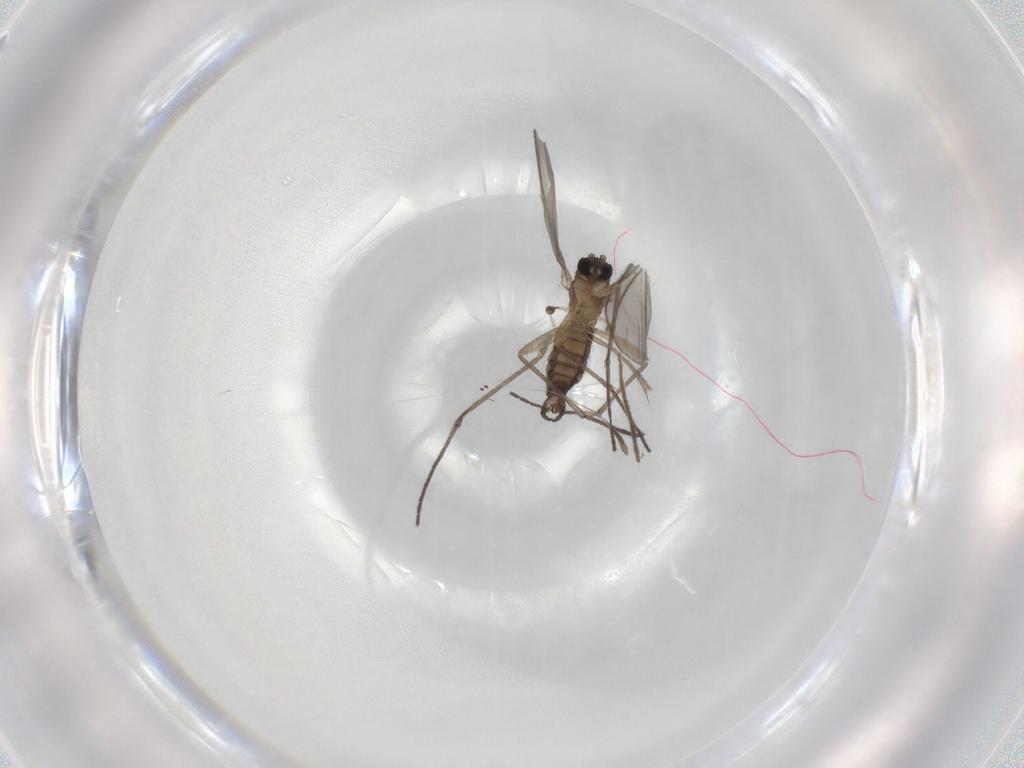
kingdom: Animalia
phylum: Arthropoda
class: Insecta
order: Diptera
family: Sciaridae
